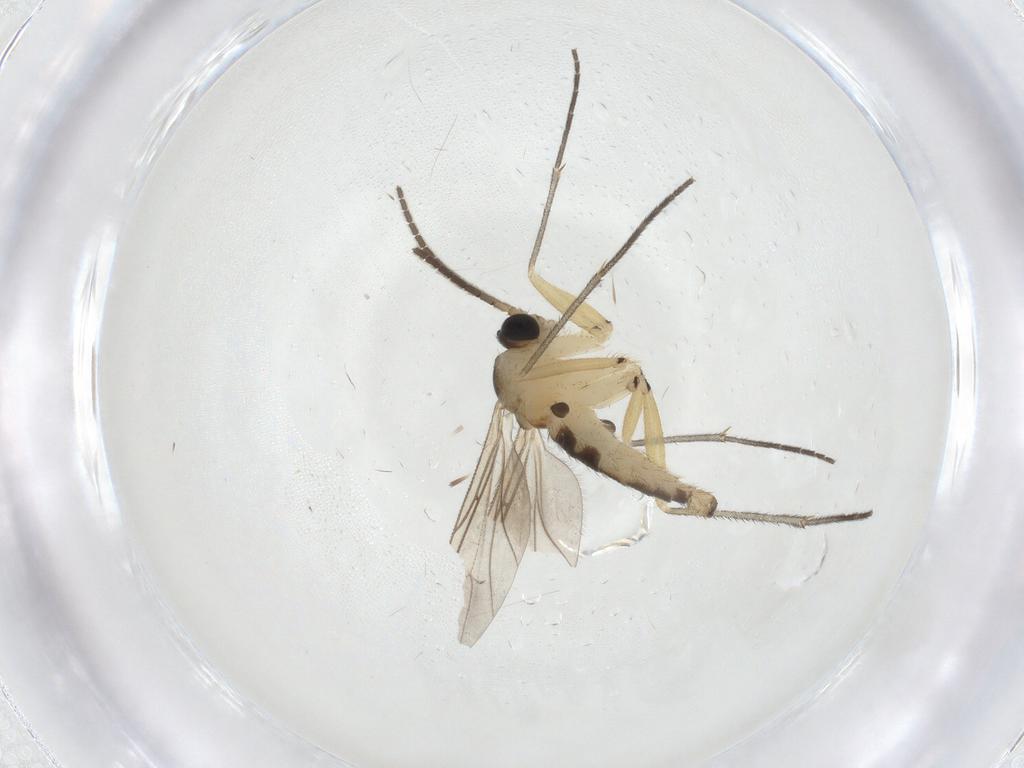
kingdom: Animalia
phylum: Arthropoda
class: Insecta
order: Diptera
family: Sciaridae
